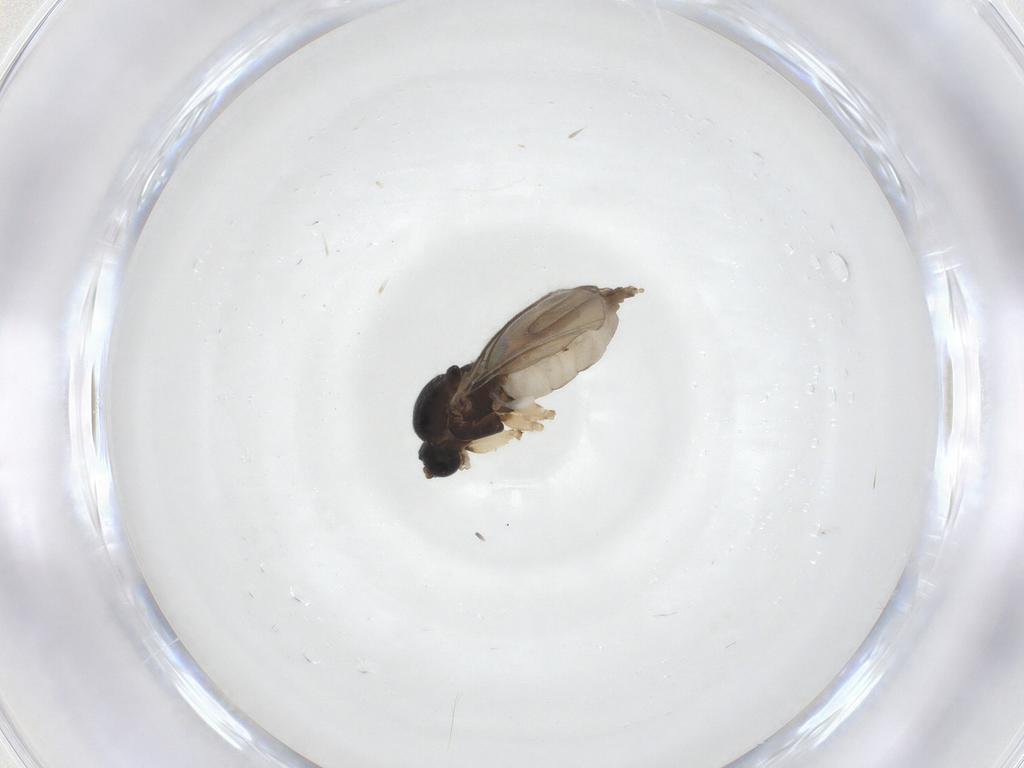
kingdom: Animalia
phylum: Arthropoda
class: Insecta
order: Diptera
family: Sciaridae
